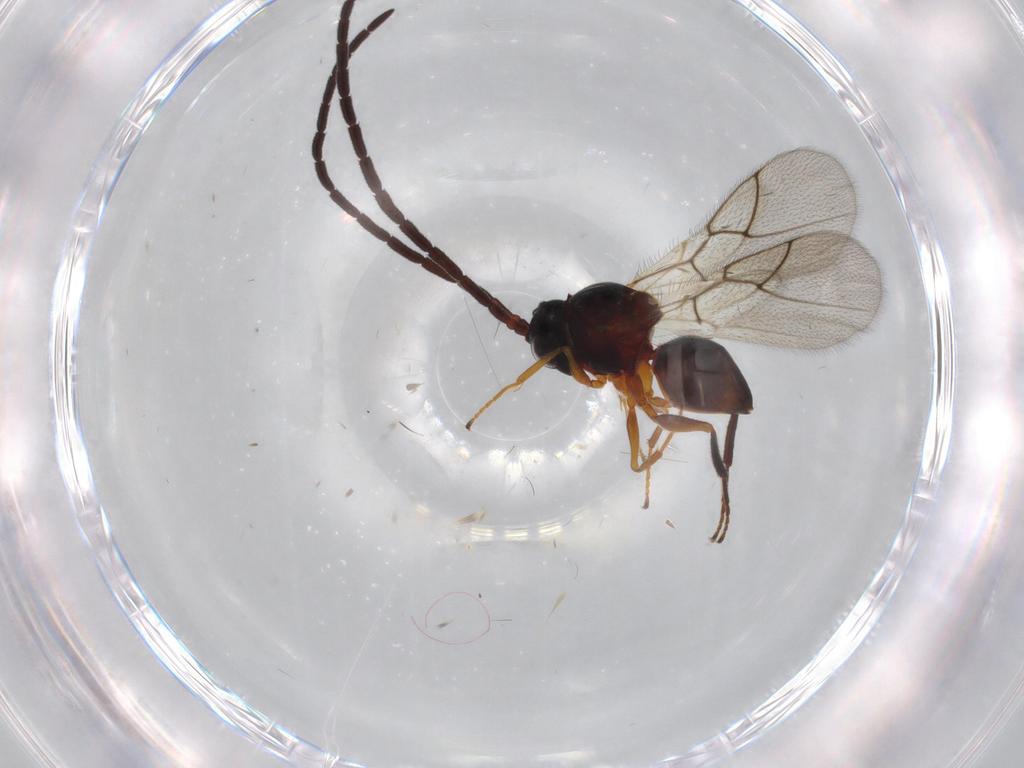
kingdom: Animalia
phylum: Arthropoda
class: Insecta
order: Hymenoptera
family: Figitidae
